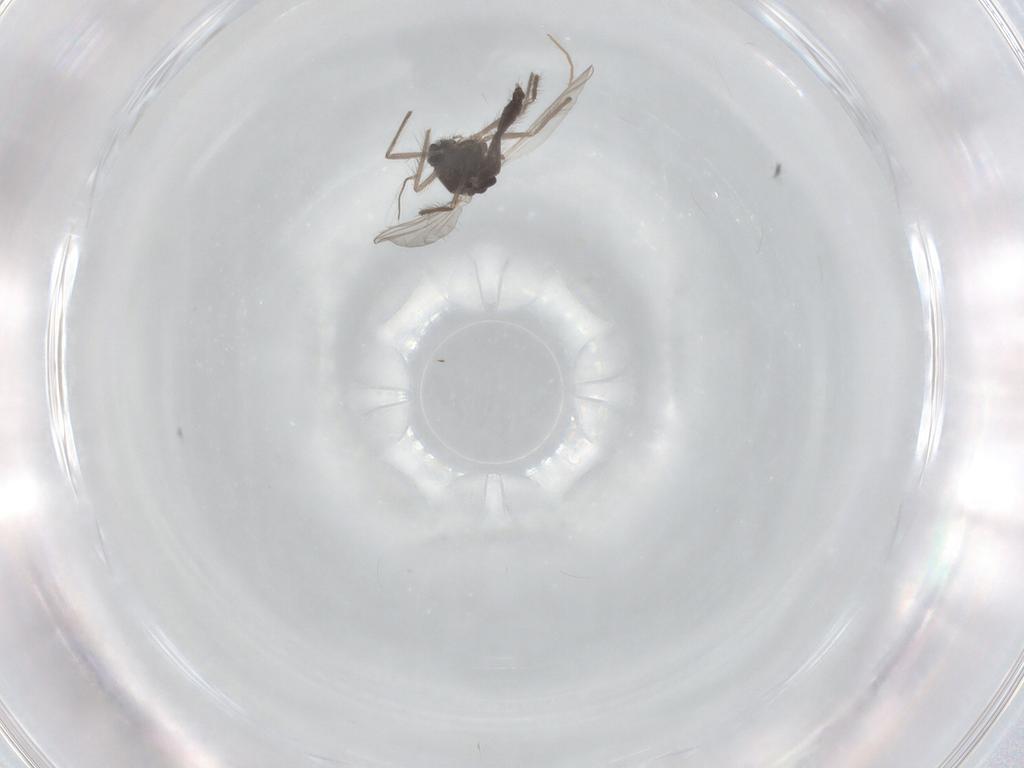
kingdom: Animalia
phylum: Arthropoda
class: Insecta
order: Diptera
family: Chironomidae
